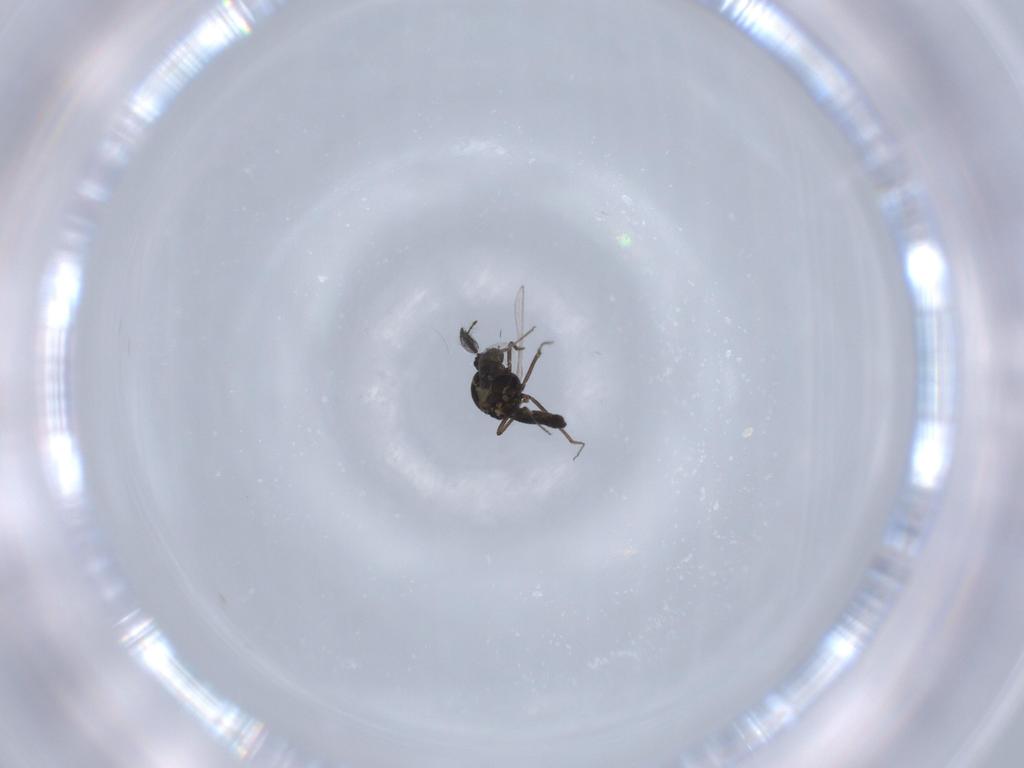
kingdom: Animalia
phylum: Arthropoda
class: Insecta
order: Diptera
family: Ceratopogonidae
